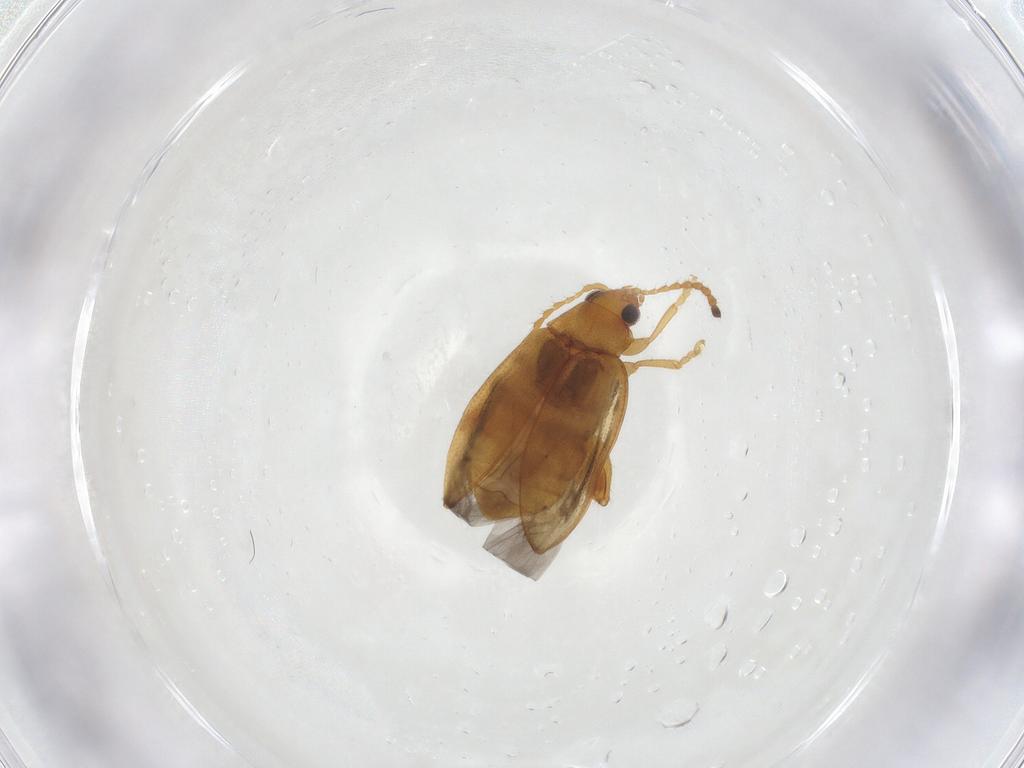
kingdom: Animalia
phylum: Arthropoda
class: Insecta
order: Coleoptera
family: Chrysomelidae
